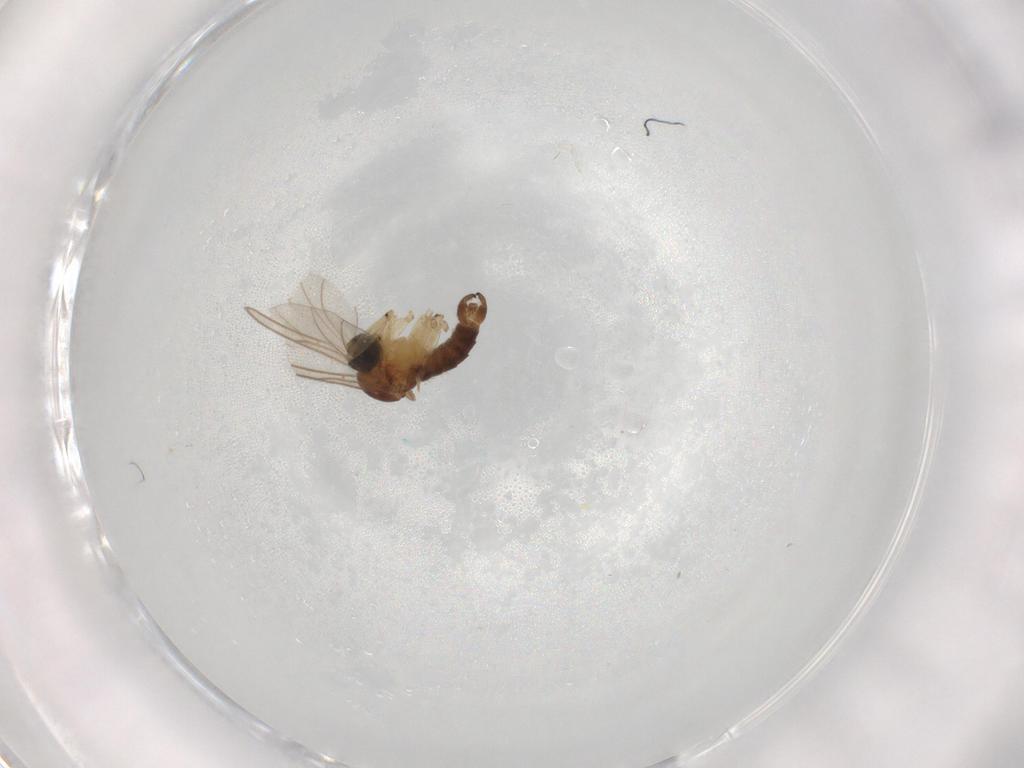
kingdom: Animalia
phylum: Arthropoda
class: Insecta
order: Diptera
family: Sciaridae
